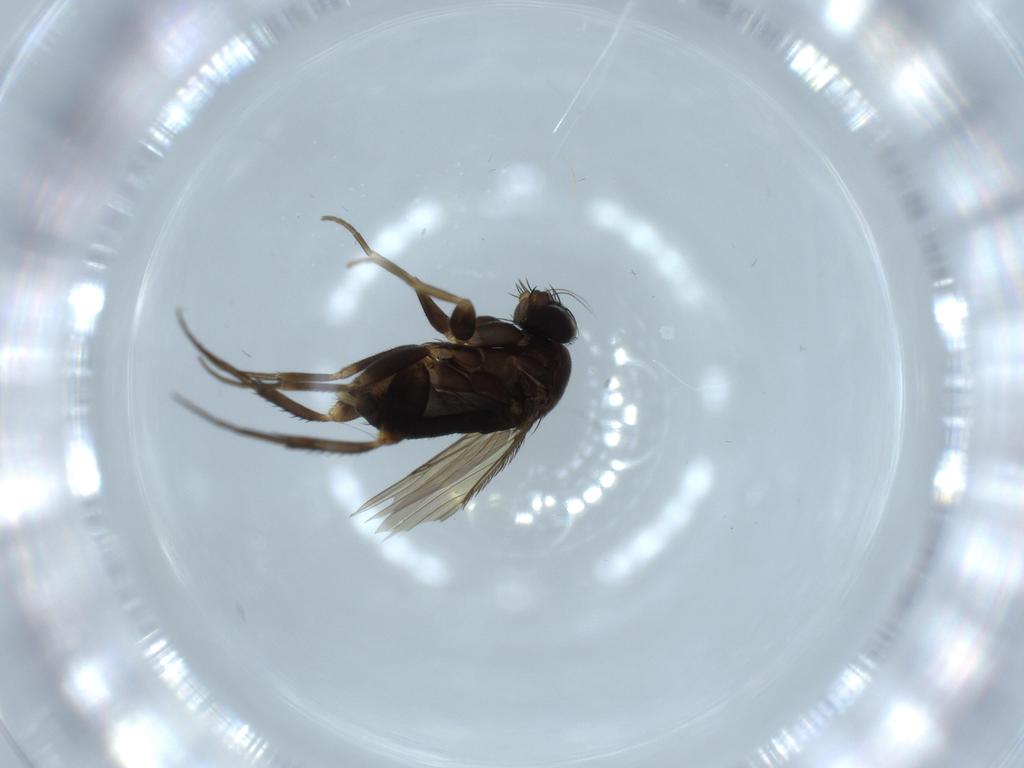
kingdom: Animalia
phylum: Arthropoda
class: Insecta
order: Diptera
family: Phoridae
